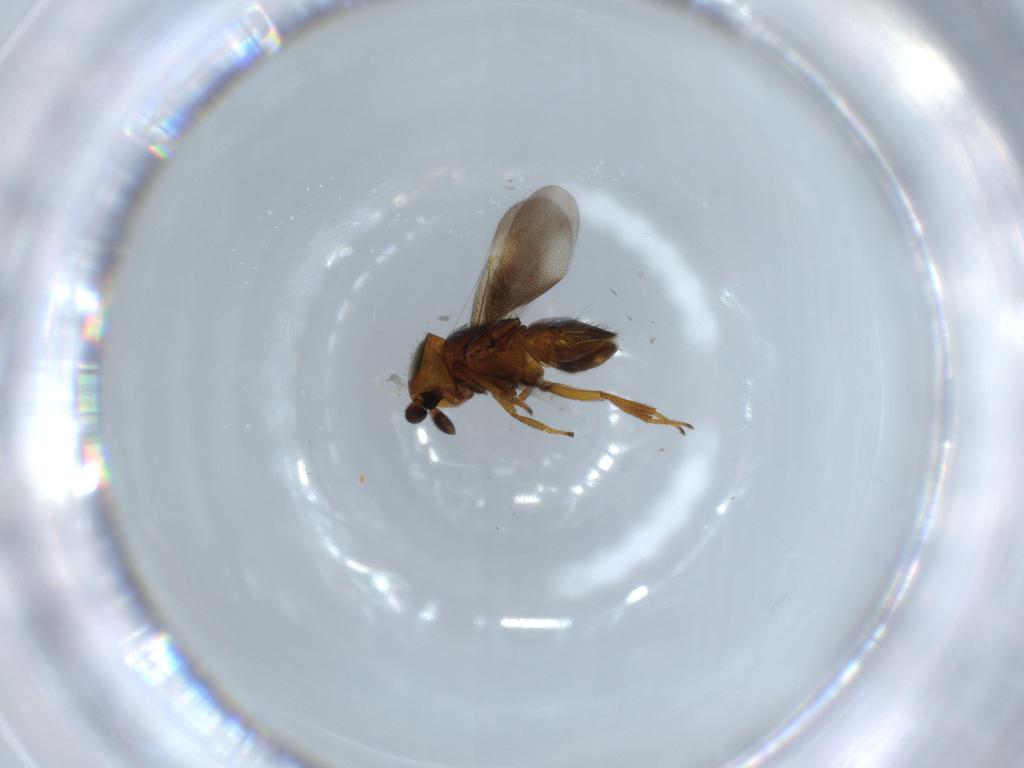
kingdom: Animalia
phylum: Arthropoda
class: Insecta
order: Hymenoptera
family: Encyrtidae
